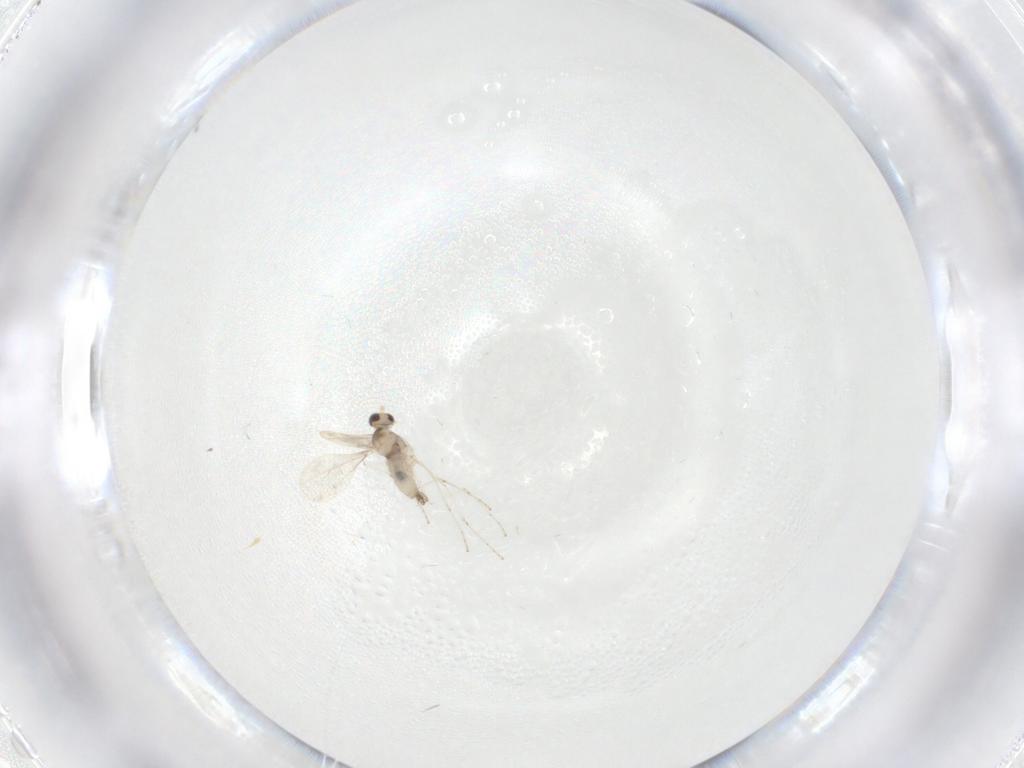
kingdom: Animalia
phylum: Arthropoda
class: Insecta
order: Diptera
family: Cecidomyiidae
